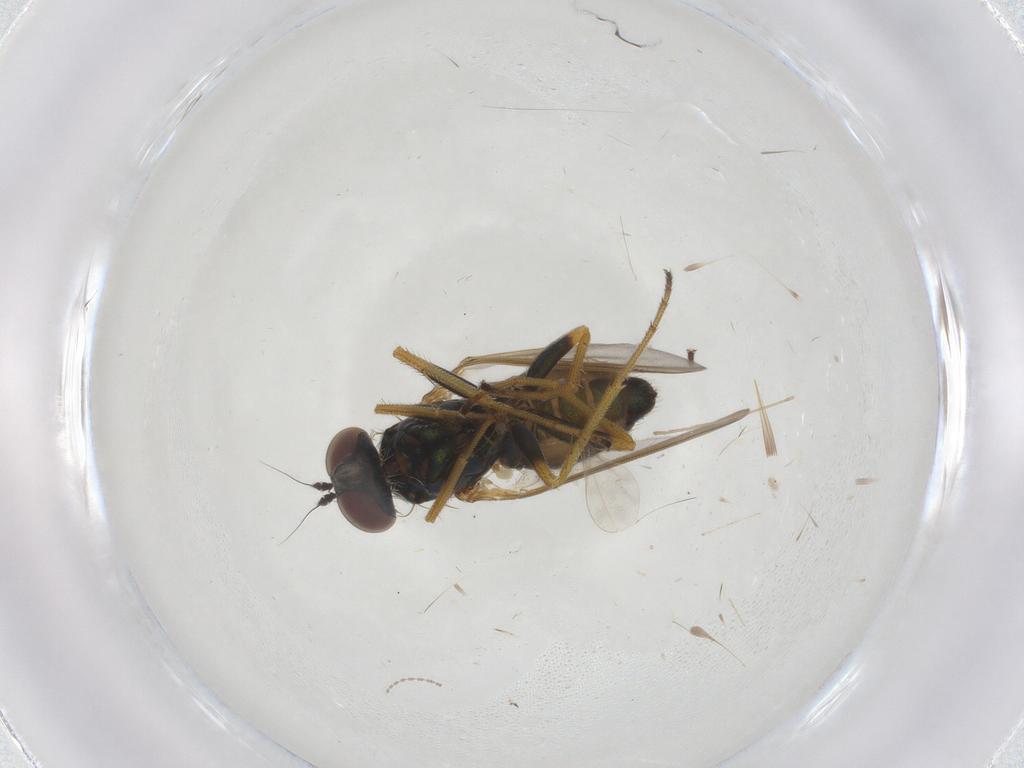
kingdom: Animalia
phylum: Arthropoda
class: Insecta
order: Diptera
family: Dolichopodidae
